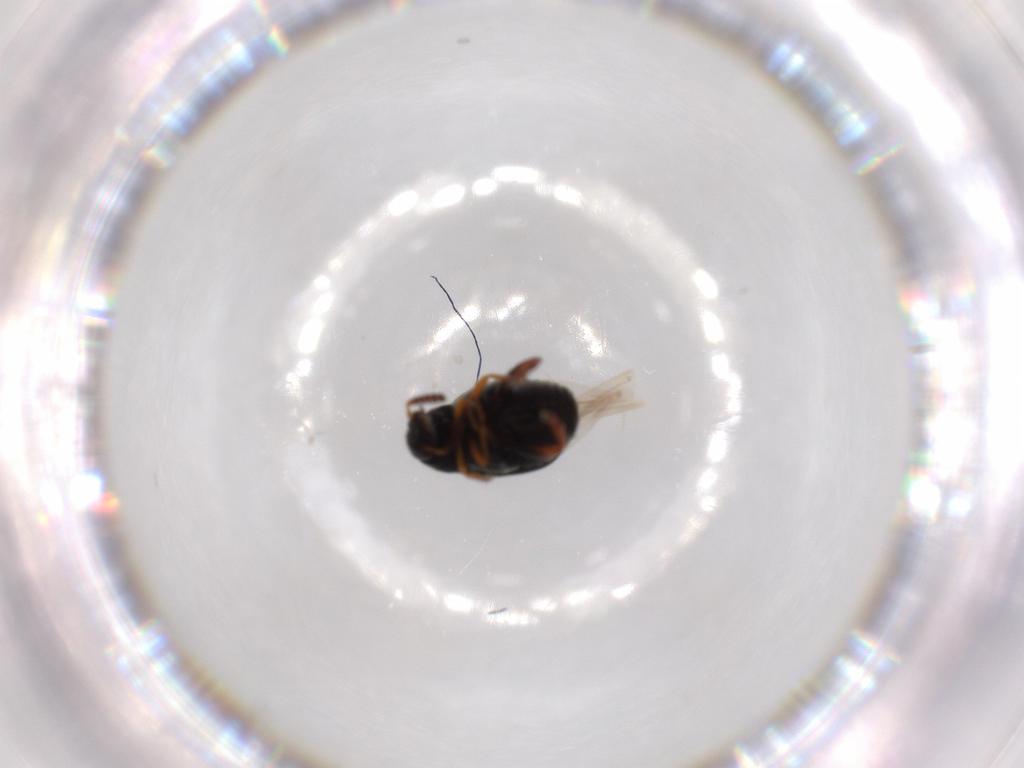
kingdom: Animalia
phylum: Arthropoda
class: Insecta
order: Coleoptera
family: Chrysomelidae
